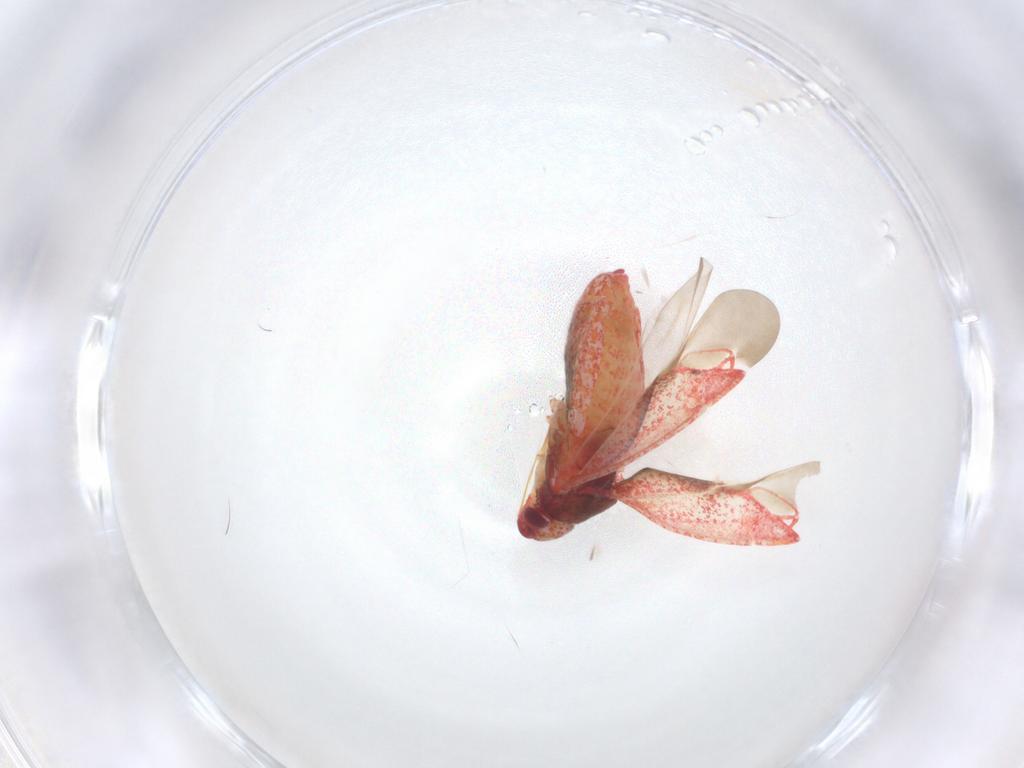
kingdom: Animalia
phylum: Arthropoda
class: Insecta
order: Hemiptera
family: Miridae
